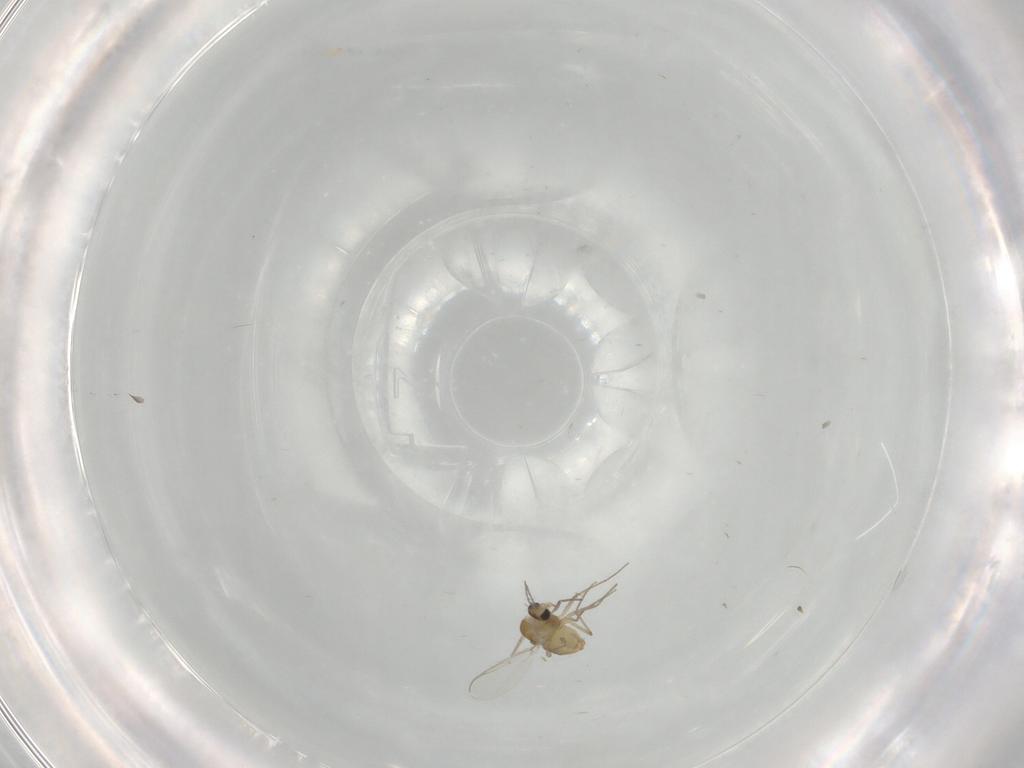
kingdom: Animalia
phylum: Arthropoda
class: Insecta
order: Diptera
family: Chironomidae
